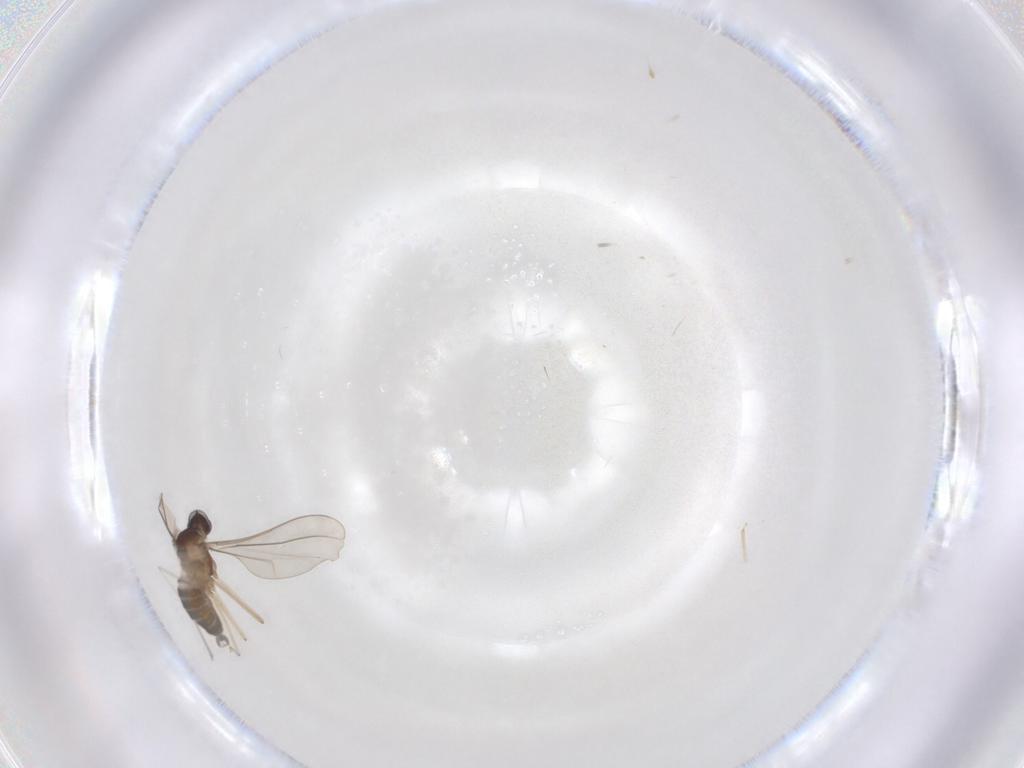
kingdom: Animalia
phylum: Arthropoda
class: Insecta
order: Diptera
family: Cecidomyiidae
